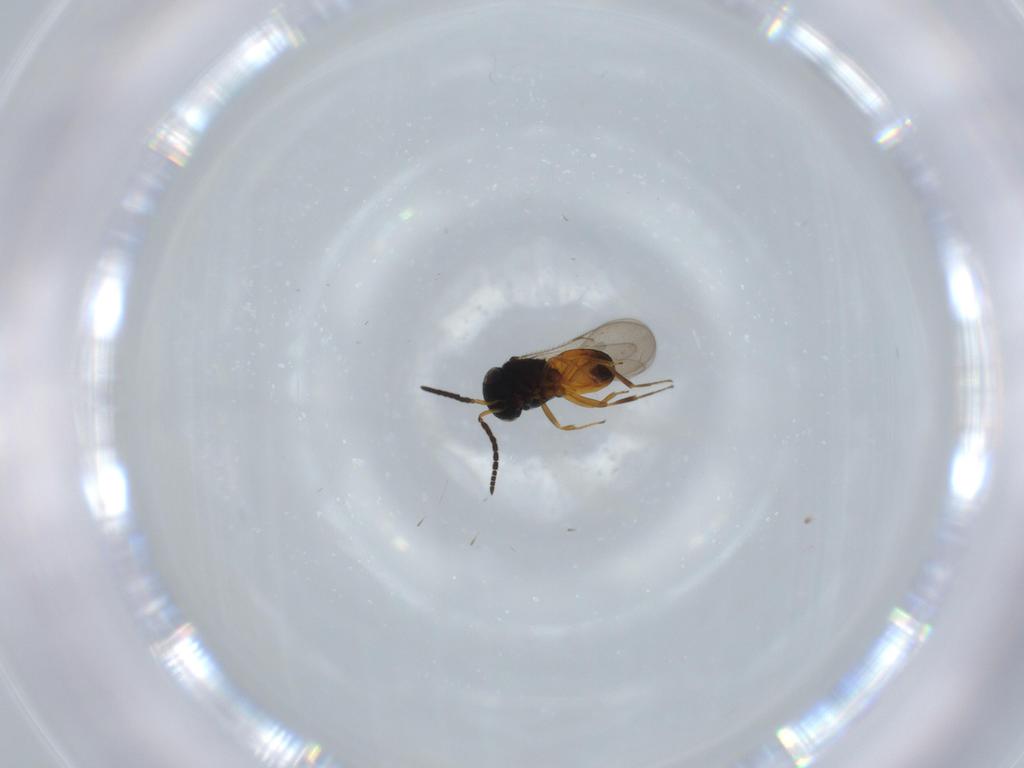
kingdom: Animalia
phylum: Arthropoda
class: Insecta
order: Hymenoptera
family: Scelionidae
